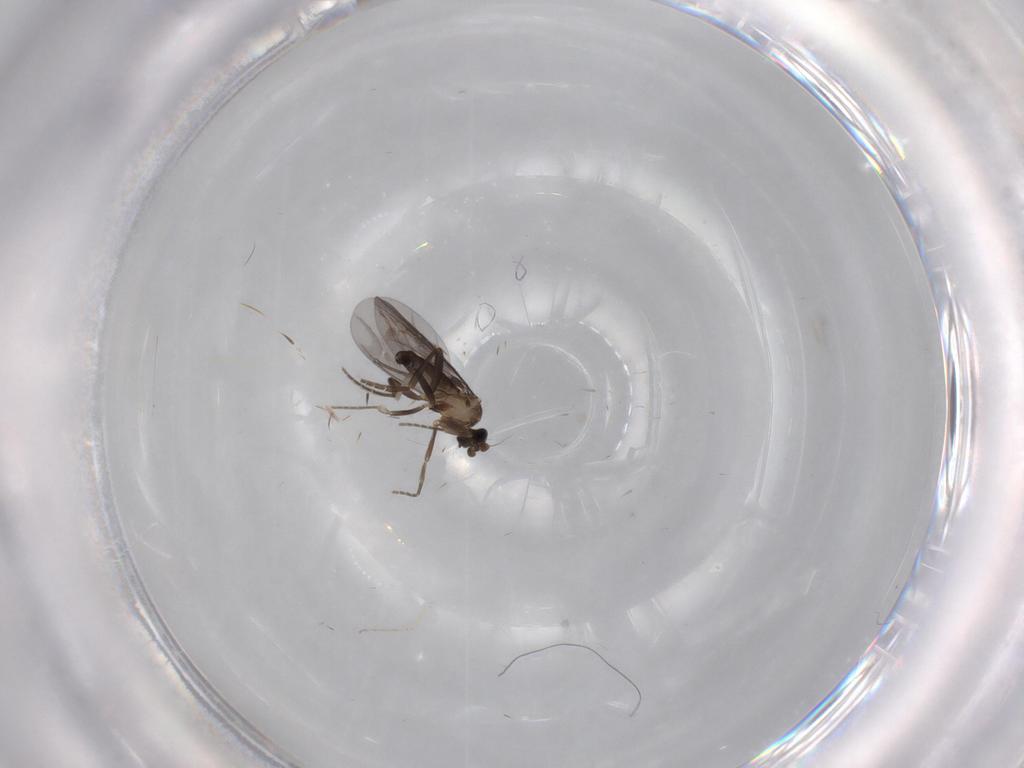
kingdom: Animalia
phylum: Arthropoda
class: Insecta
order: Diptera
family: Phoridae
